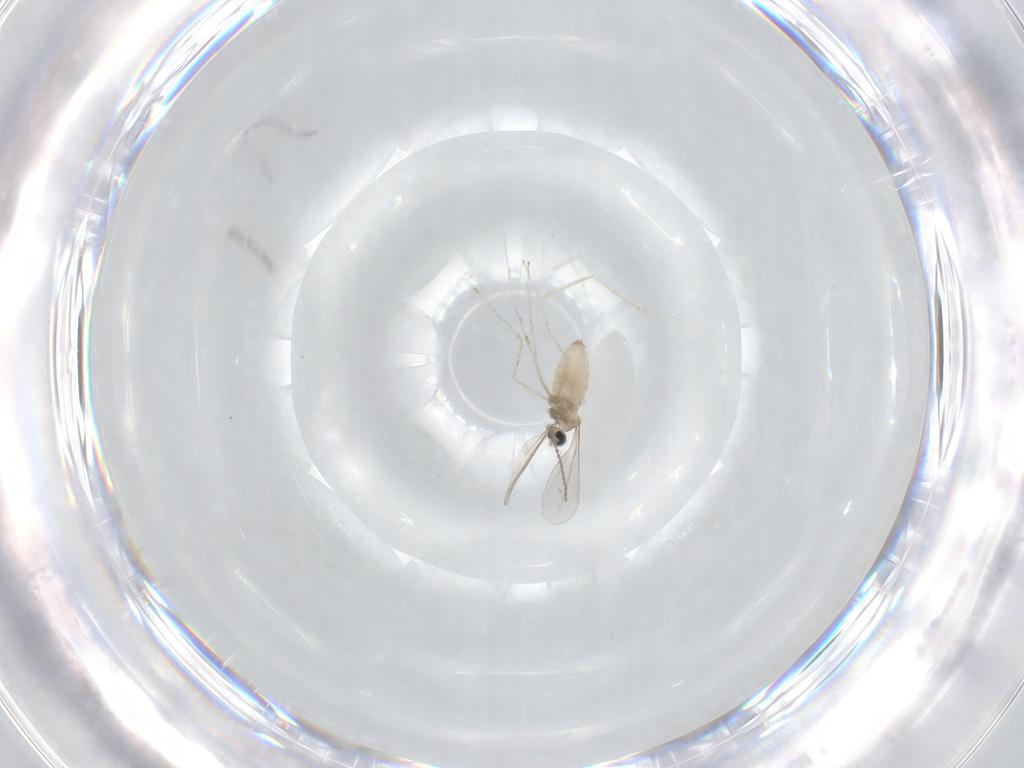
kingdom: Animalia
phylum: Arthropoda
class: Insecta
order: Diptera
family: Cecidomyiidae
